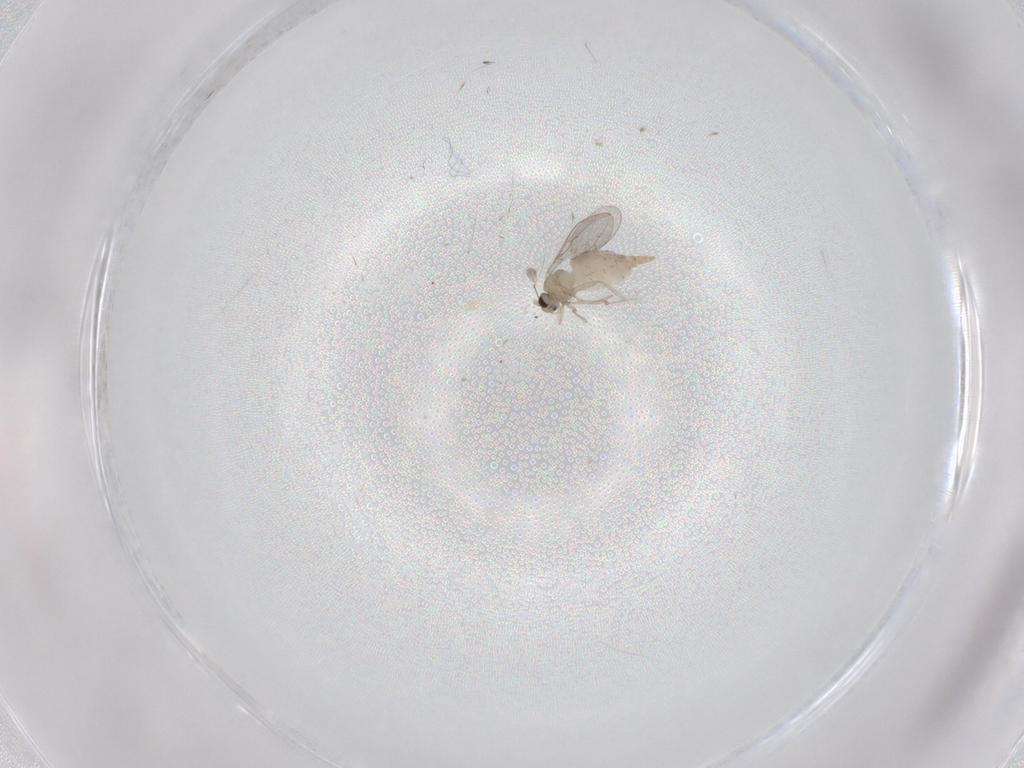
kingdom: Animalia
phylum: Arthropoda
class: Insecta
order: Diptera
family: Cecidomyiidae
